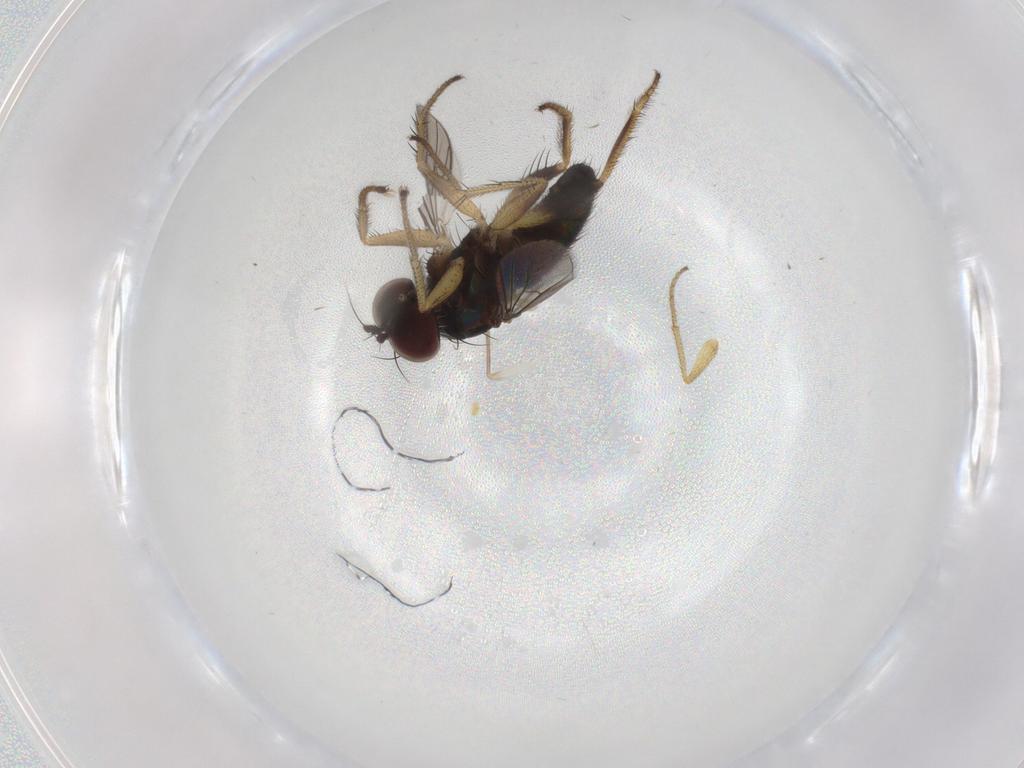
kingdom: Animalia
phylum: Arthropoda
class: Insecta
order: Diptera
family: Dolichopodidae
